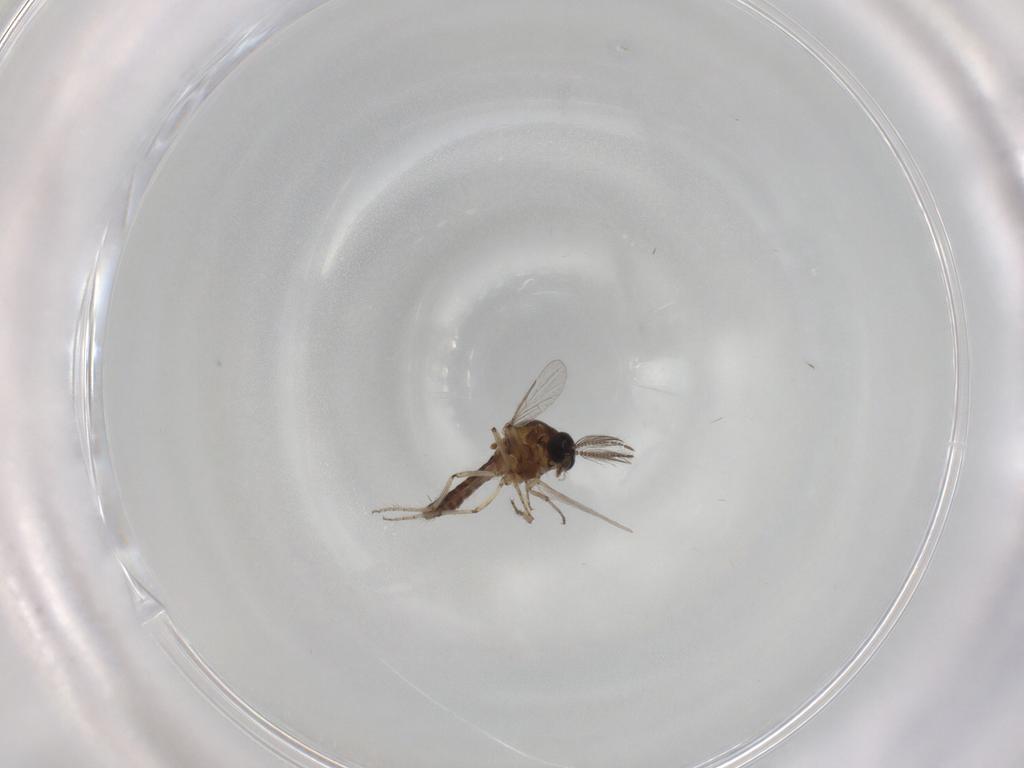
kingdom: Animalia
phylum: Arthropoda
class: Insecta
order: Diptera
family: Ceratopogonidae
